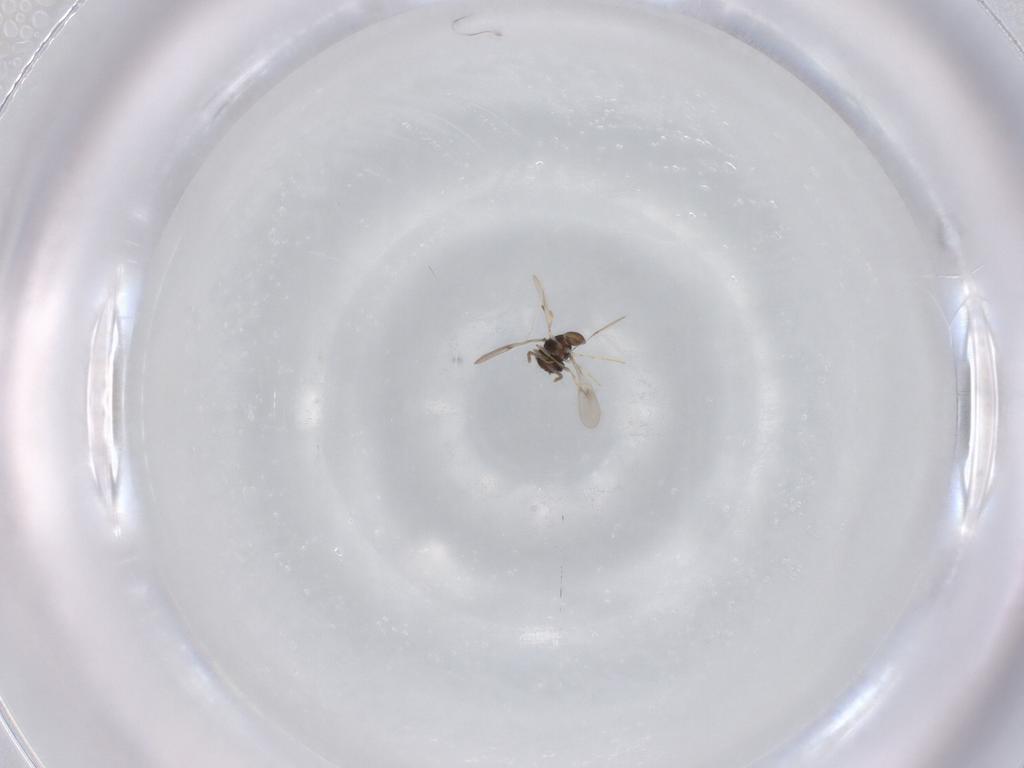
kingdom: Animalia
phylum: Arthropoda
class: Insecta
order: Hymenoptera
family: Scelionidae
